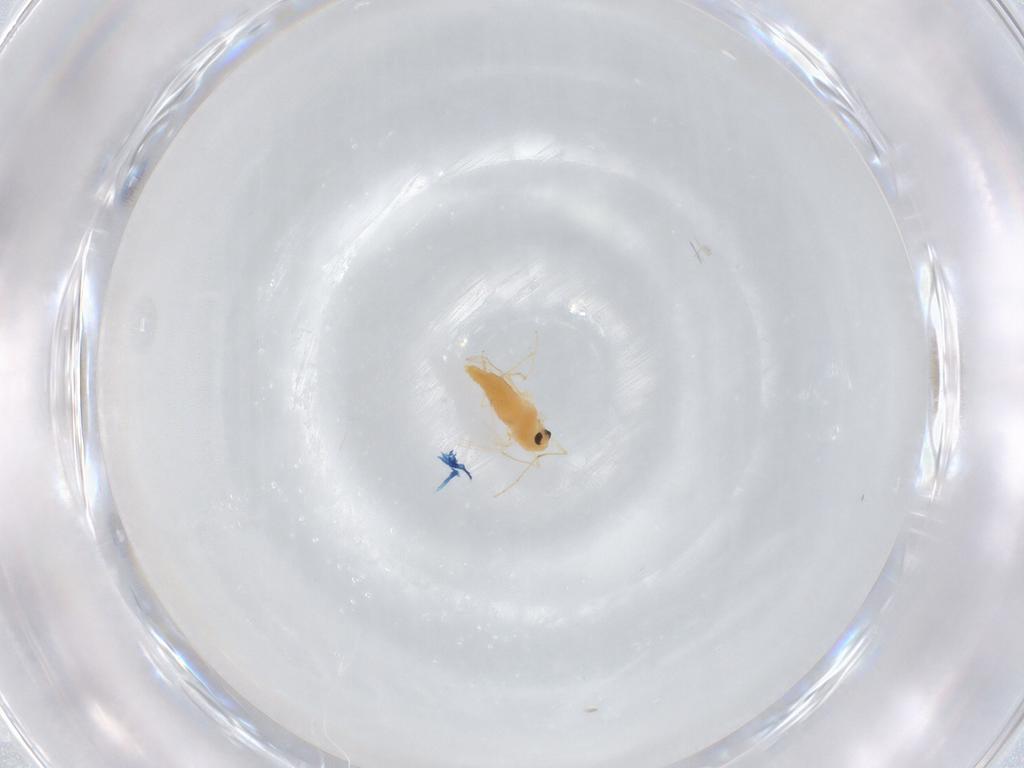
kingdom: Animalia
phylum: Arthropoda
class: Insecta
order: Diptera
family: Chironomidae
